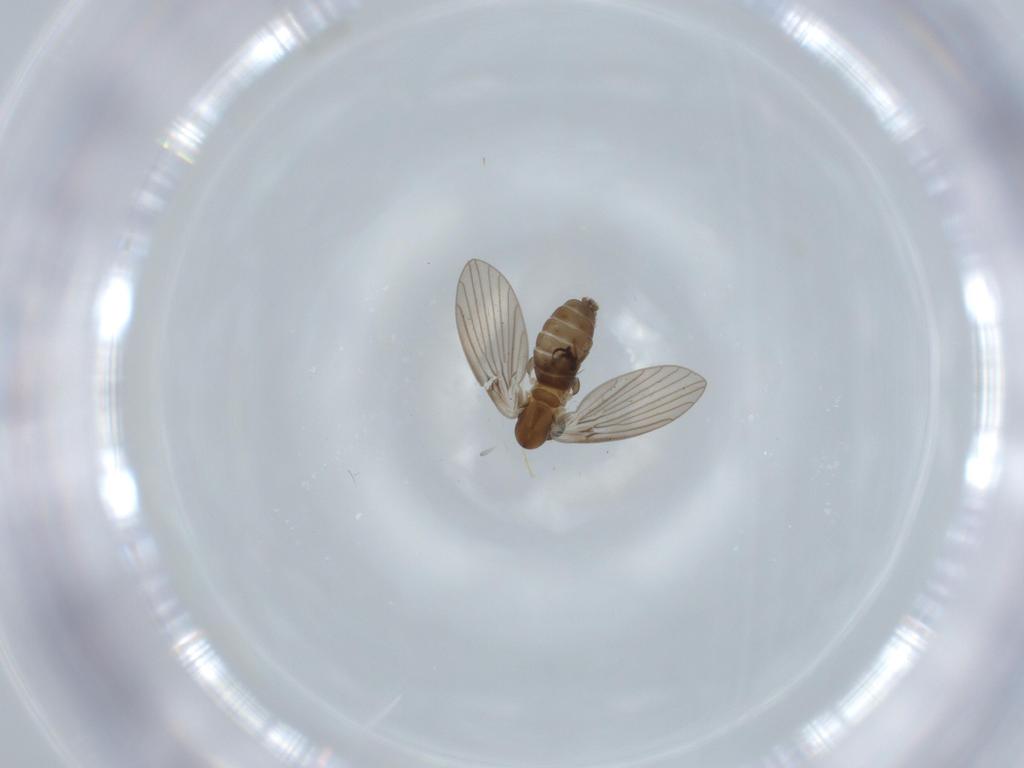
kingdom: Animalia
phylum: Arthropoda
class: Insecta
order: Diptera
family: Psychodidae
